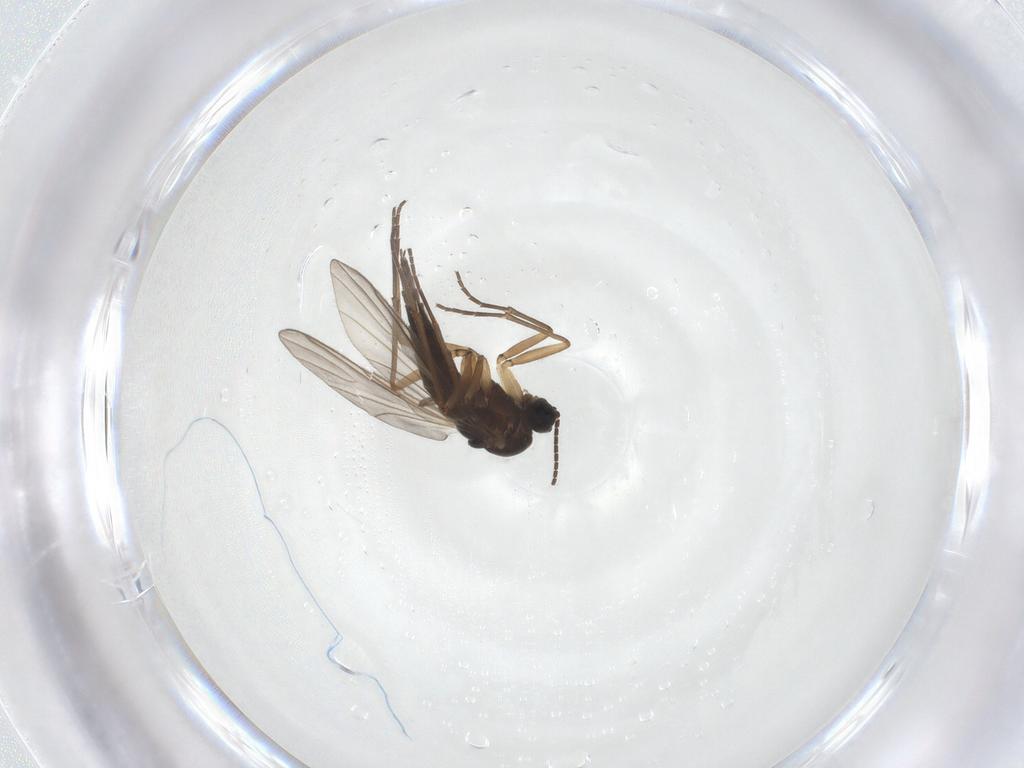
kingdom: Animalia
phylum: Arthropoda
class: Insecta
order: Diptera
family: Sciaridae
